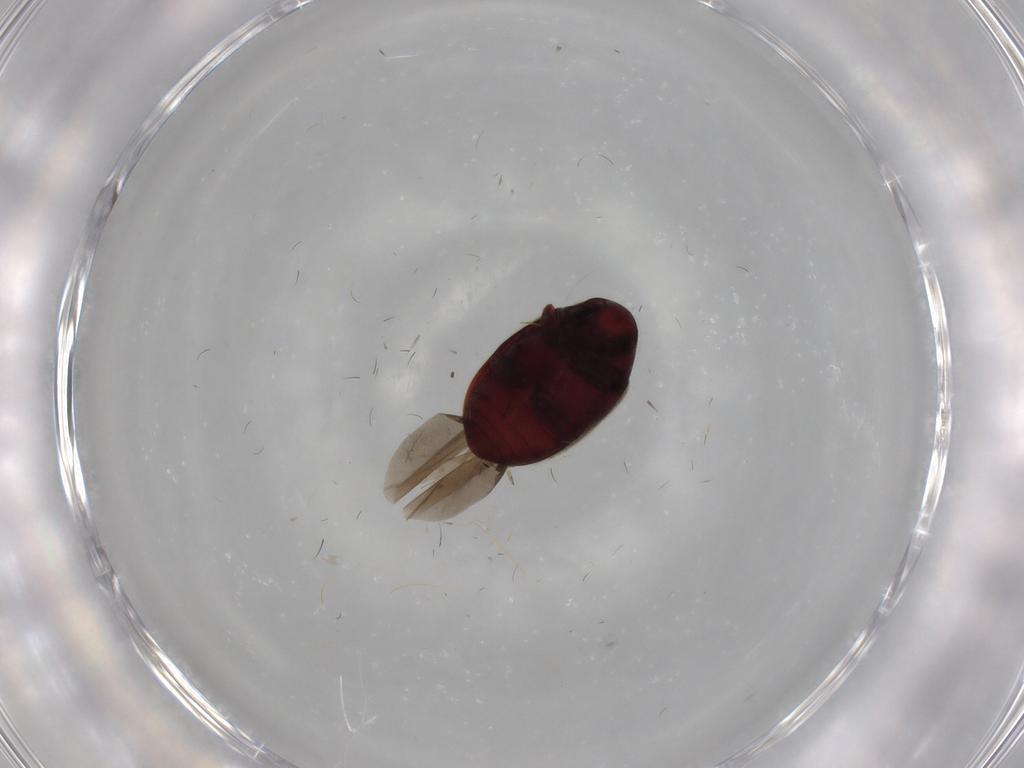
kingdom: Animalia
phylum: Arthropoda
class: Insecta
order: Coleoptera
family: Ptinidae
